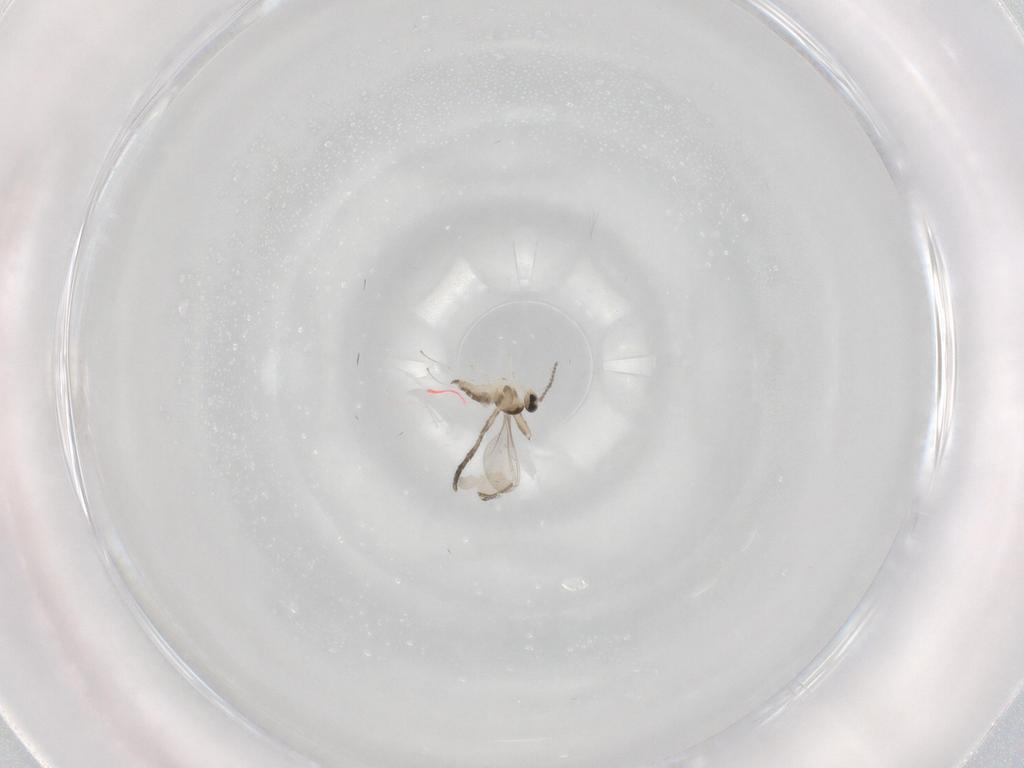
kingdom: Animalia
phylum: Arthropoda
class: Insecta
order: Diptera
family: Cecidomyiidae
